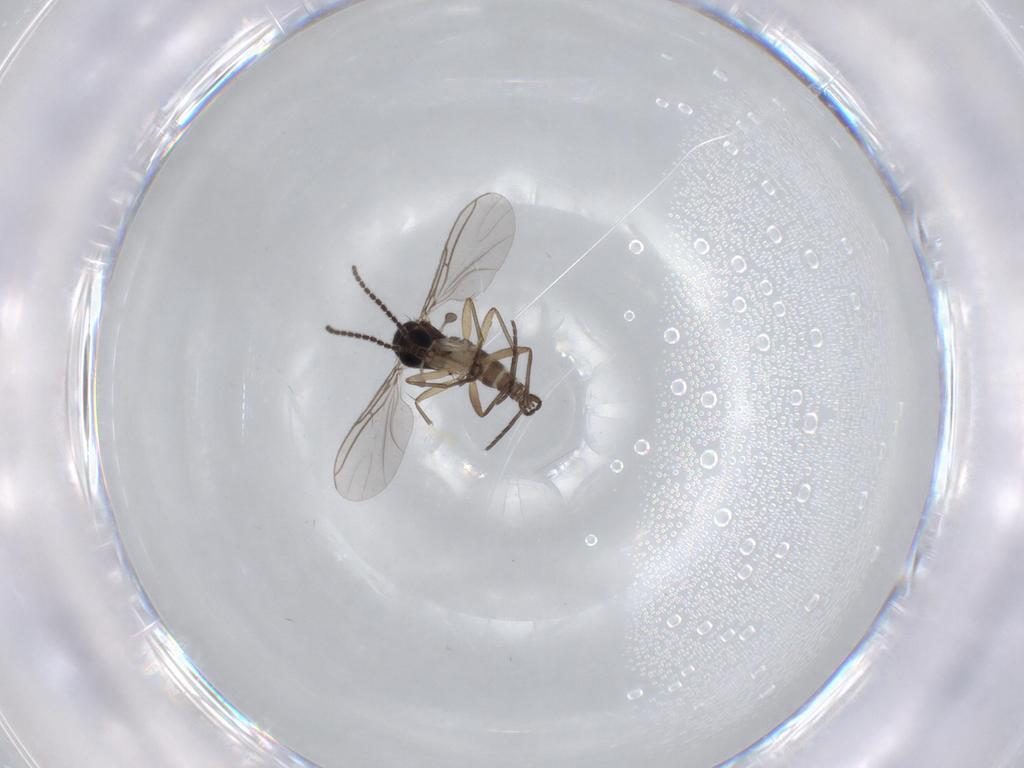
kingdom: Animalia
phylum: Arthropoda
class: Insecta
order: Diptera
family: Sciaridae
